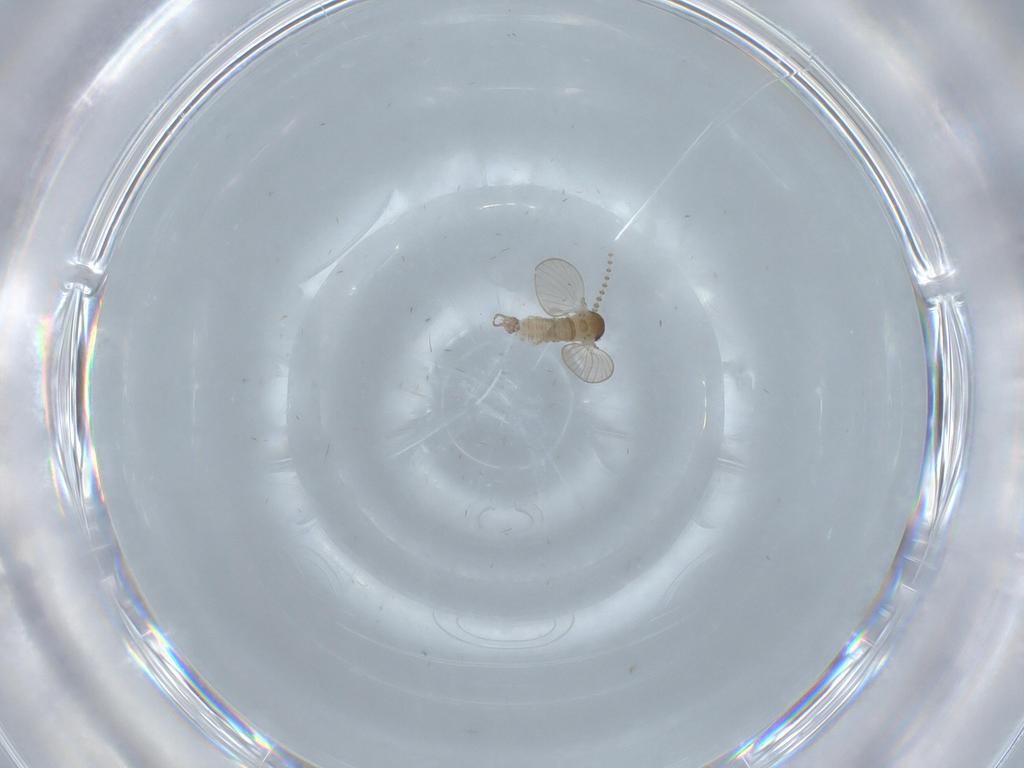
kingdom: Animalia
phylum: Arthropoda
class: Insecta
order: Diptera
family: Psychodidae
